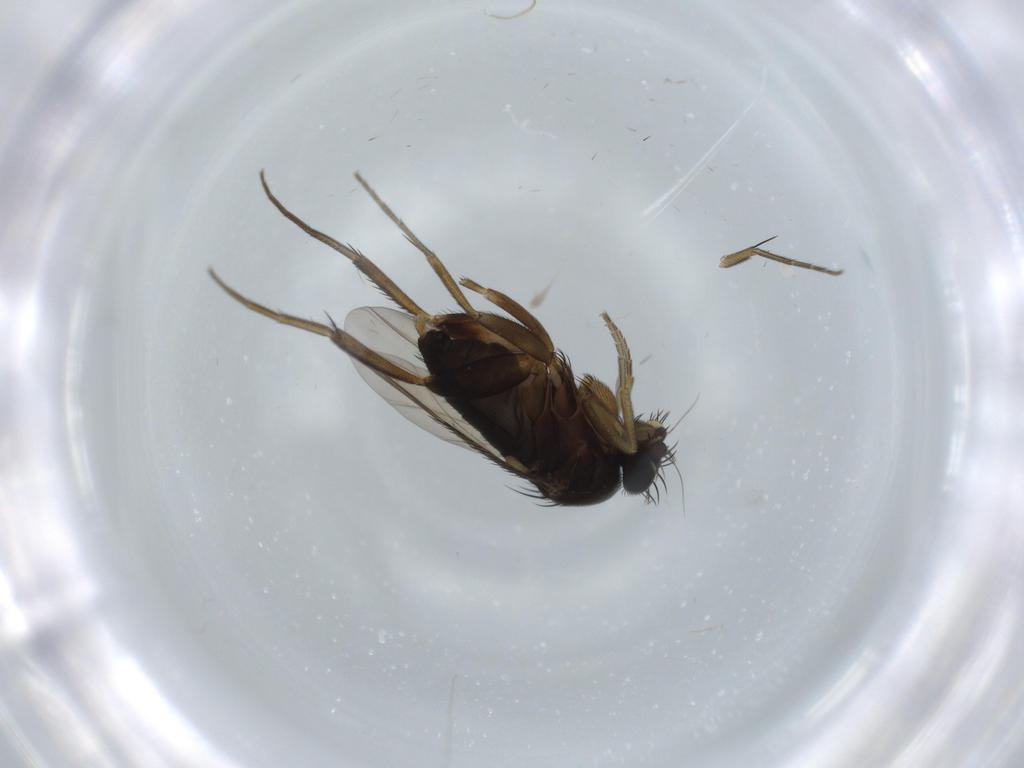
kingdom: Animalia
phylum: Arthropoda
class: Insecta
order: Diptera
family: Phoridae
